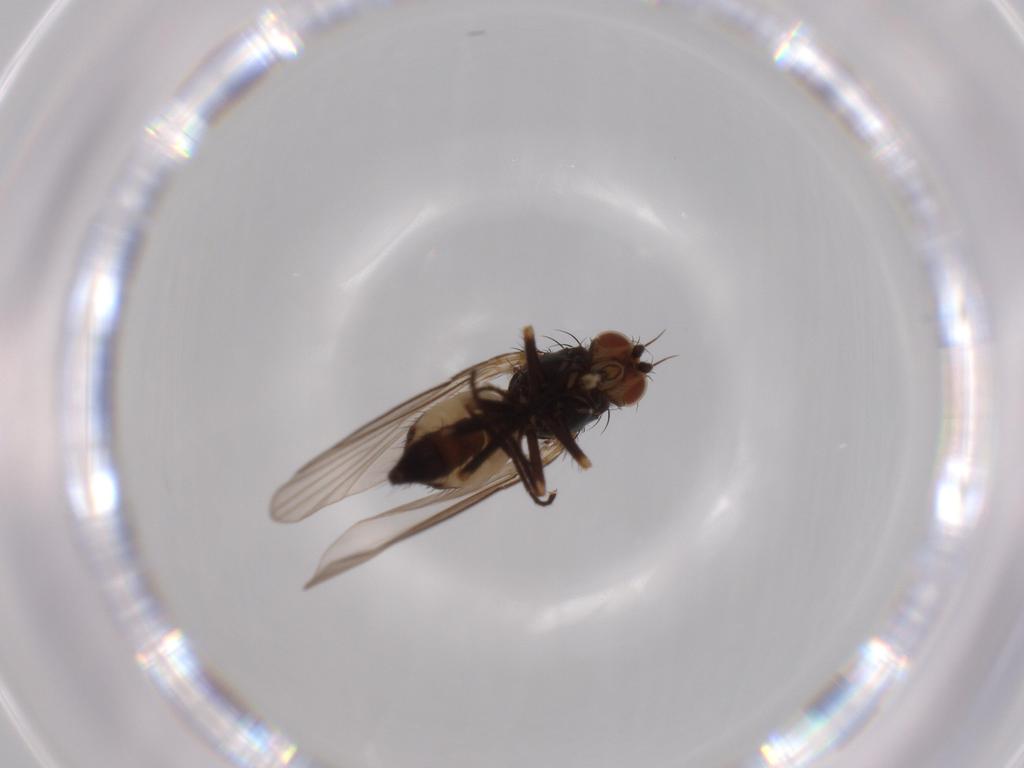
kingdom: Animalia
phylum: Arthropoda
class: Insecta
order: Diptera
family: Agromyzidae
